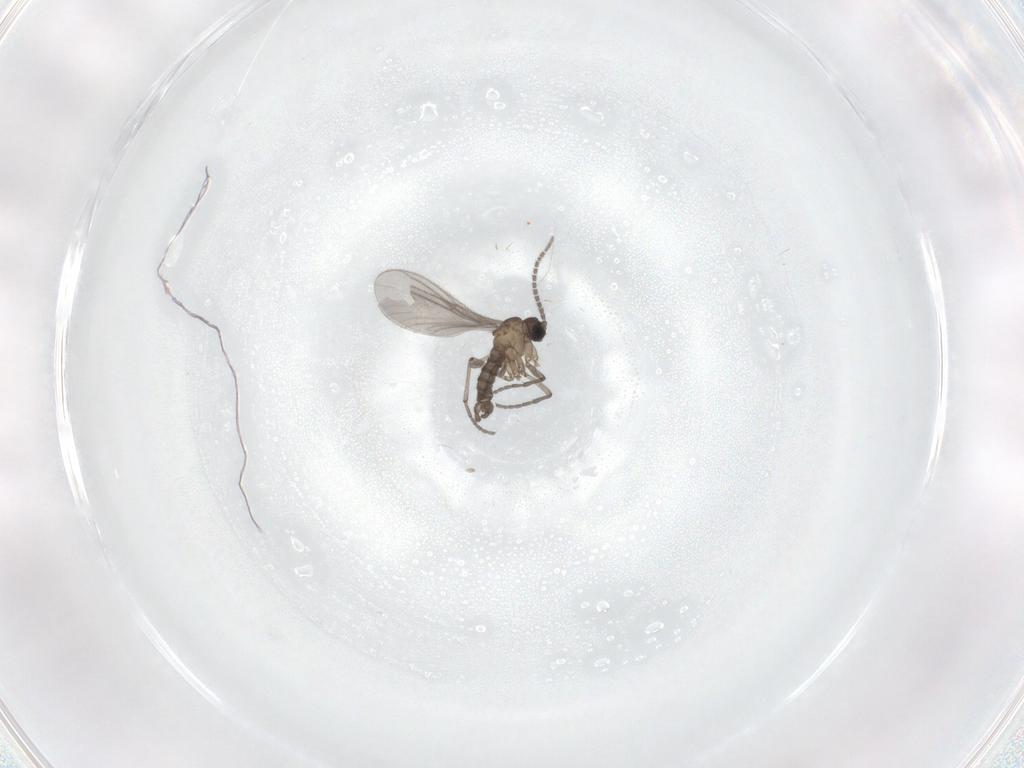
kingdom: Animalia
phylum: Arthropoda
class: Insecta
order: Diptera
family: Sciaridae
